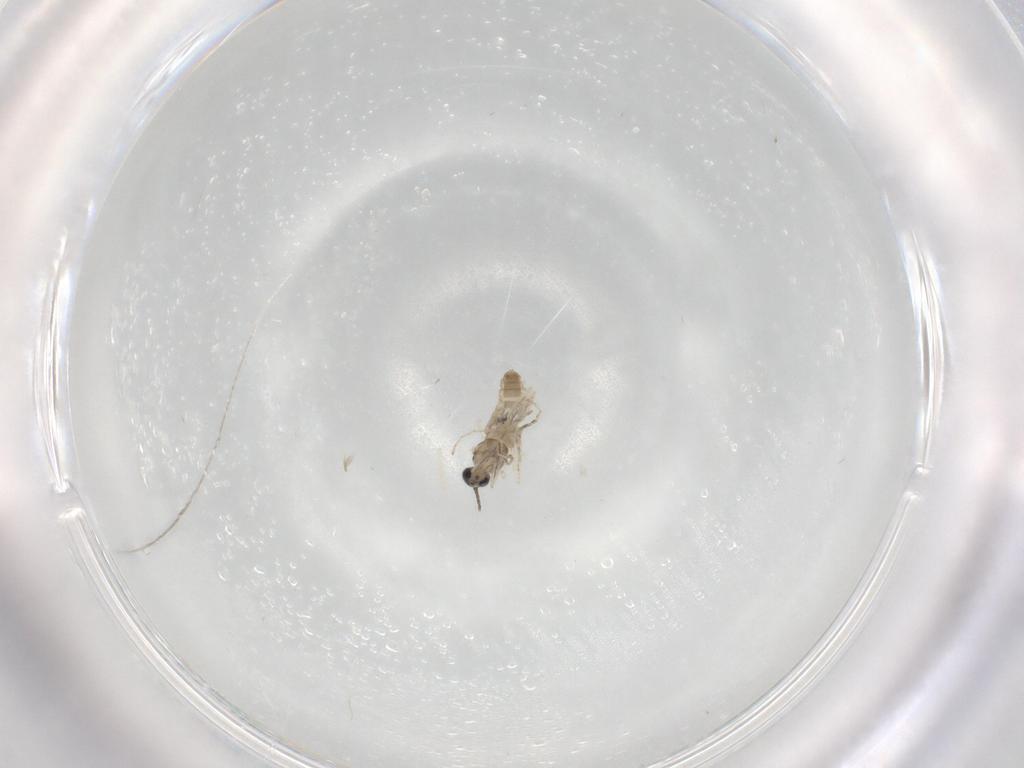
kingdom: Animalia
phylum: Arthropoda
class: Insecta
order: Diptera
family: Cecidomyiidae
